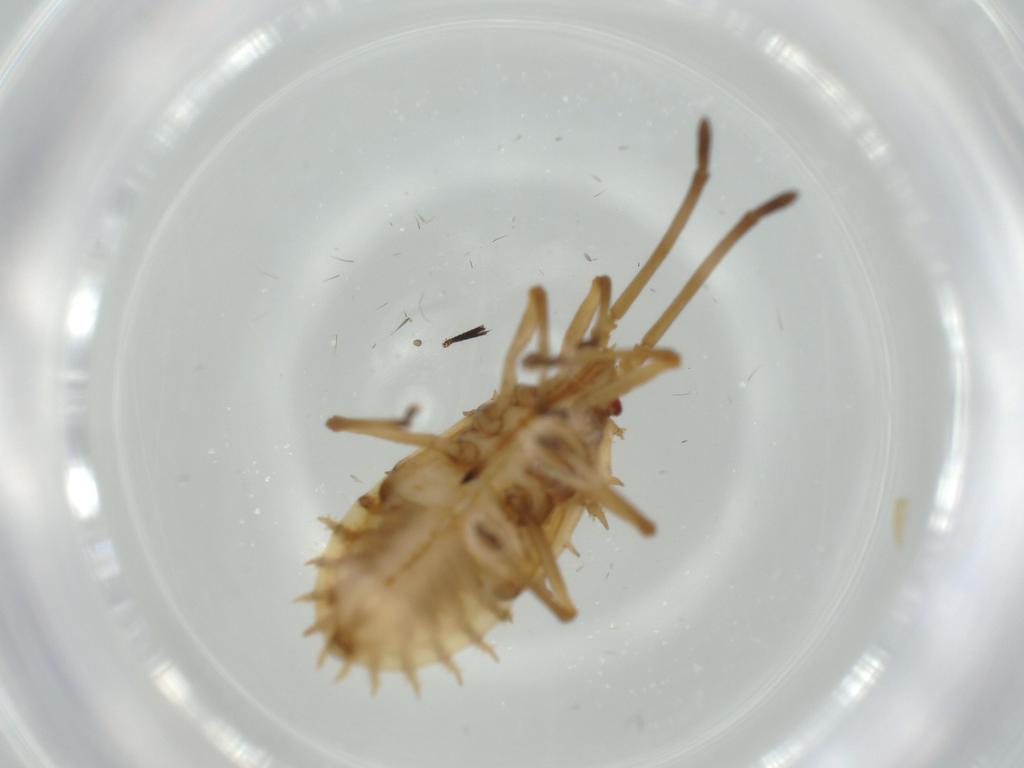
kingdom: Animalia
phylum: Arthropoda
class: Insecta
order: Hemiptera
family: Tingidae
